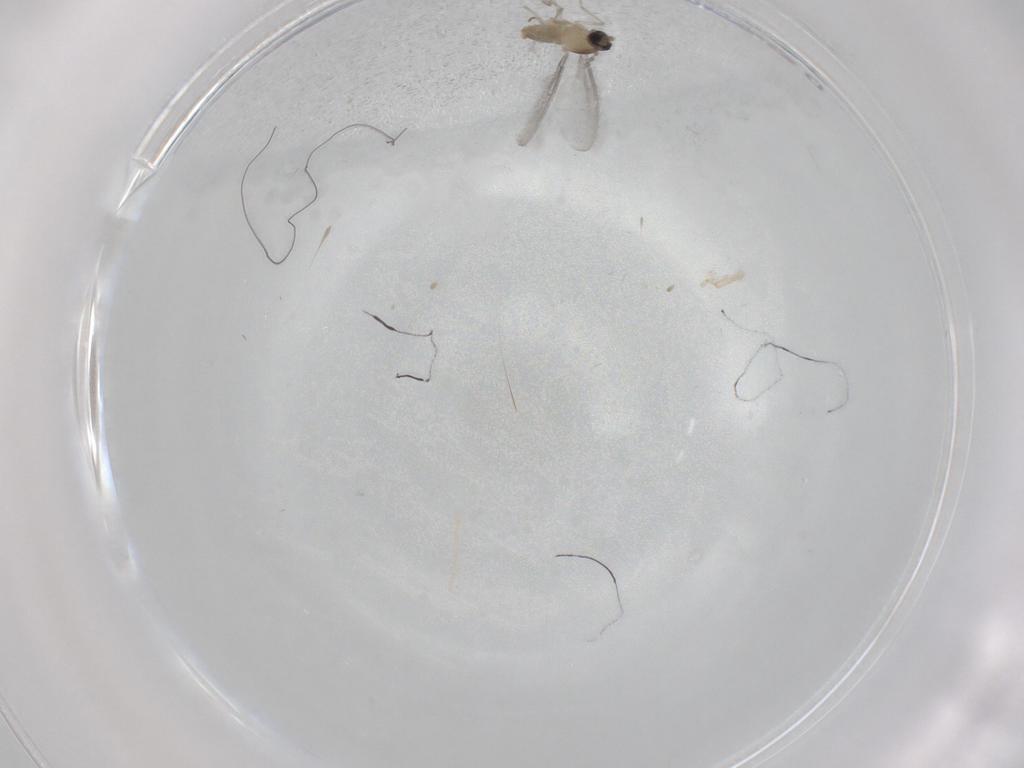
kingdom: Animalia
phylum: Arthropoda
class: Insecta
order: Diptera
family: Cecidomyiidae
